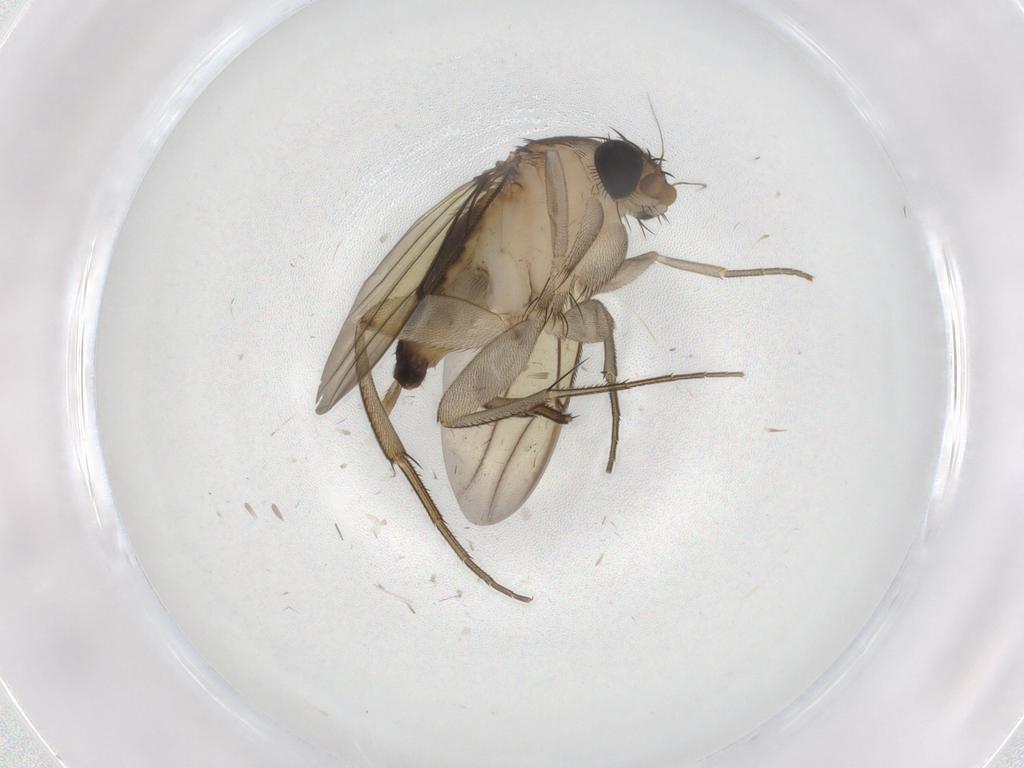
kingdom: Animalia
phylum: Arthropoda
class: Insecta
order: Diptera
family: Phoridae
